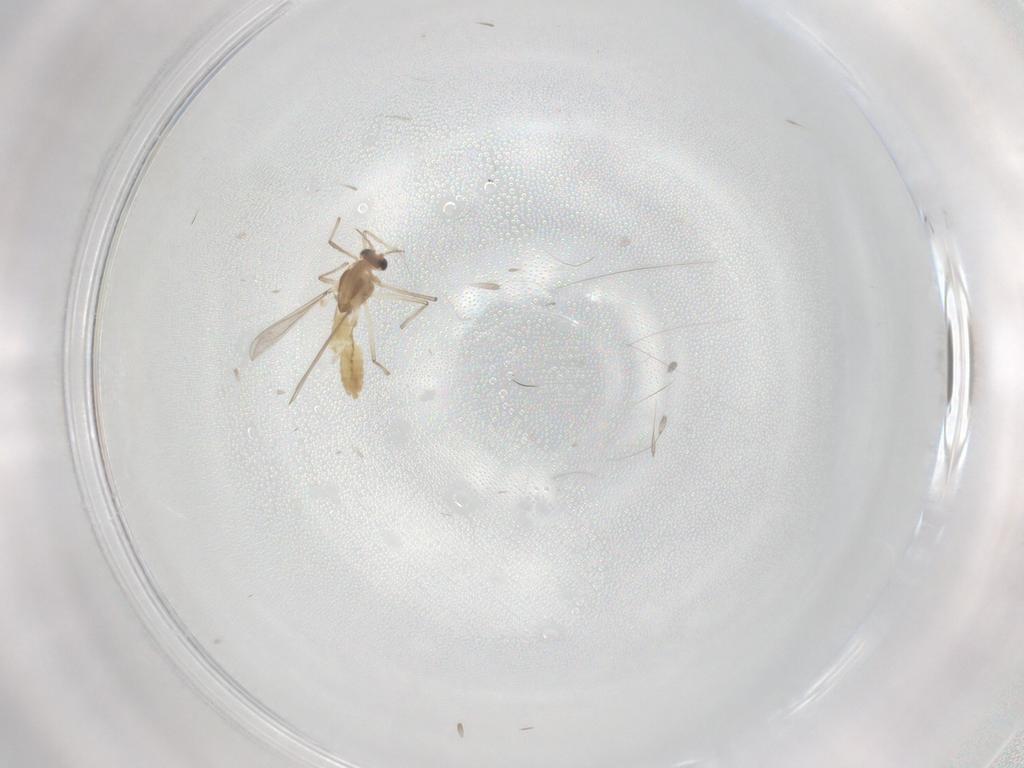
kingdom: Animalia
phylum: Arthropoda
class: Insecta
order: Diptera
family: Chironomidae
